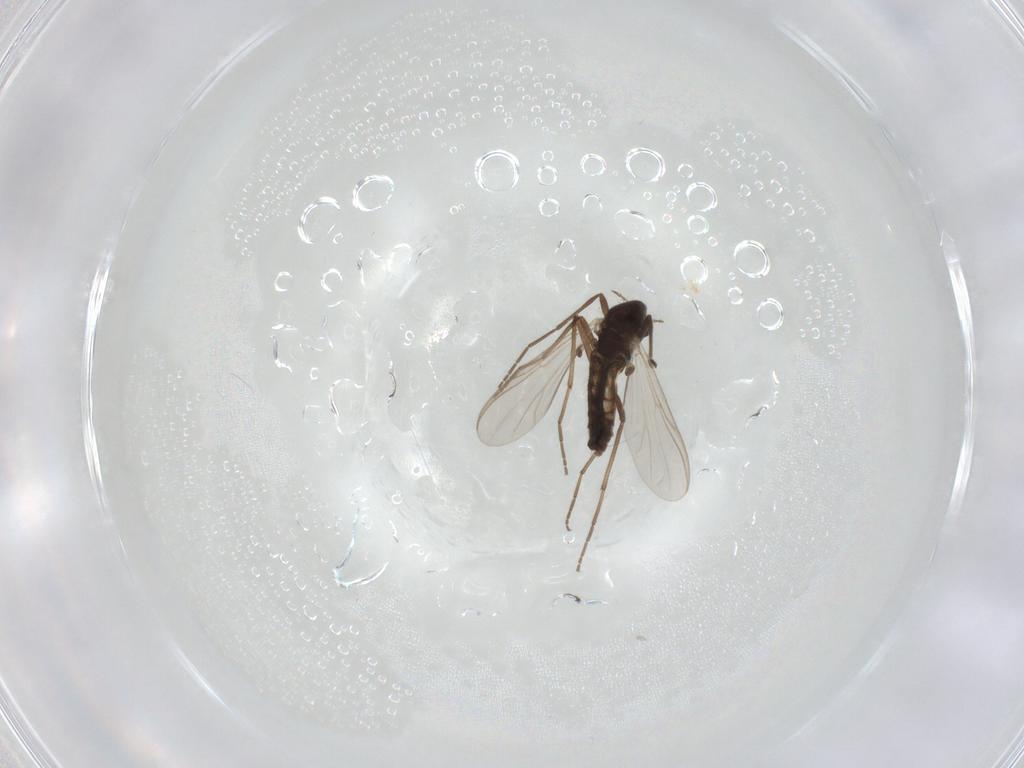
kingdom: Animalia
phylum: Arthropoda
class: Insecta
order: Diptera
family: Chironomidae
